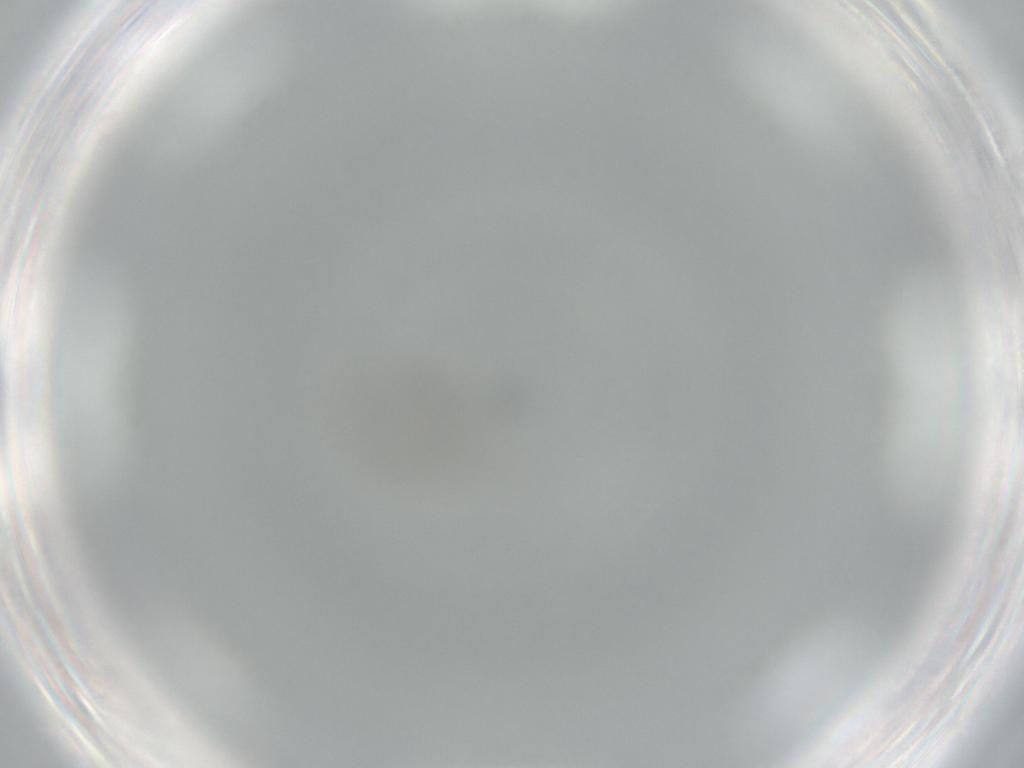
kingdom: Animalia
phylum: Arthropoda
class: Insecta
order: Diptera
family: Cecidomyiidae
